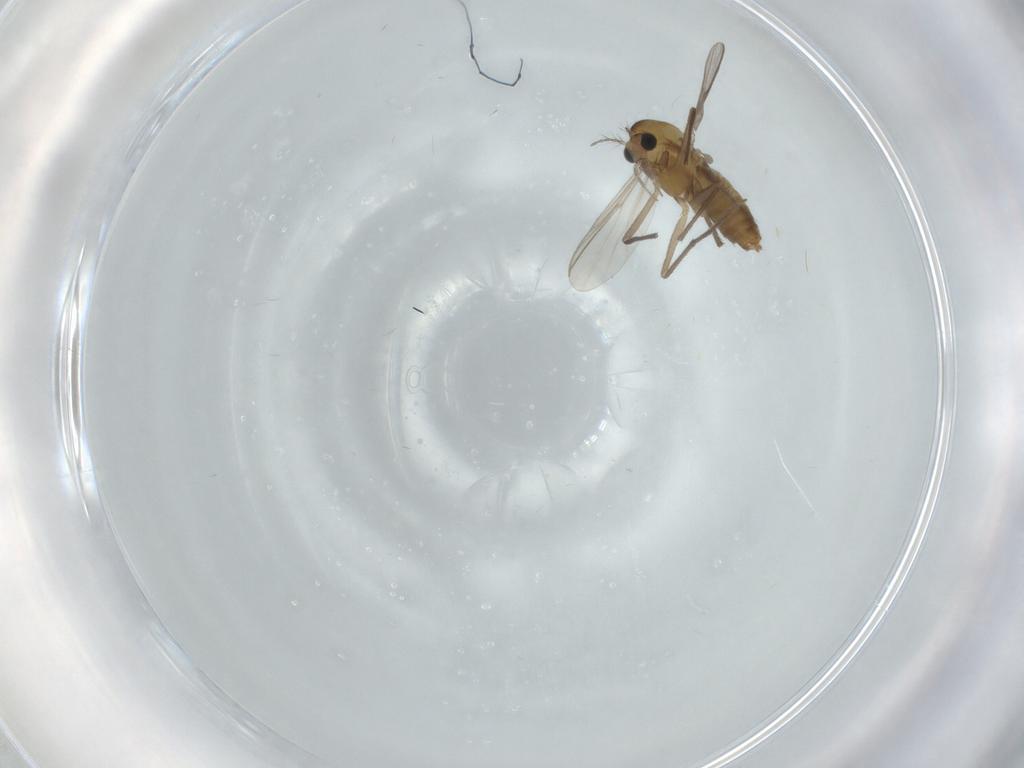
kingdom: Animalia
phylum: Arthropoda
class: Insecta
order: Diptera
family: Chironomidae
